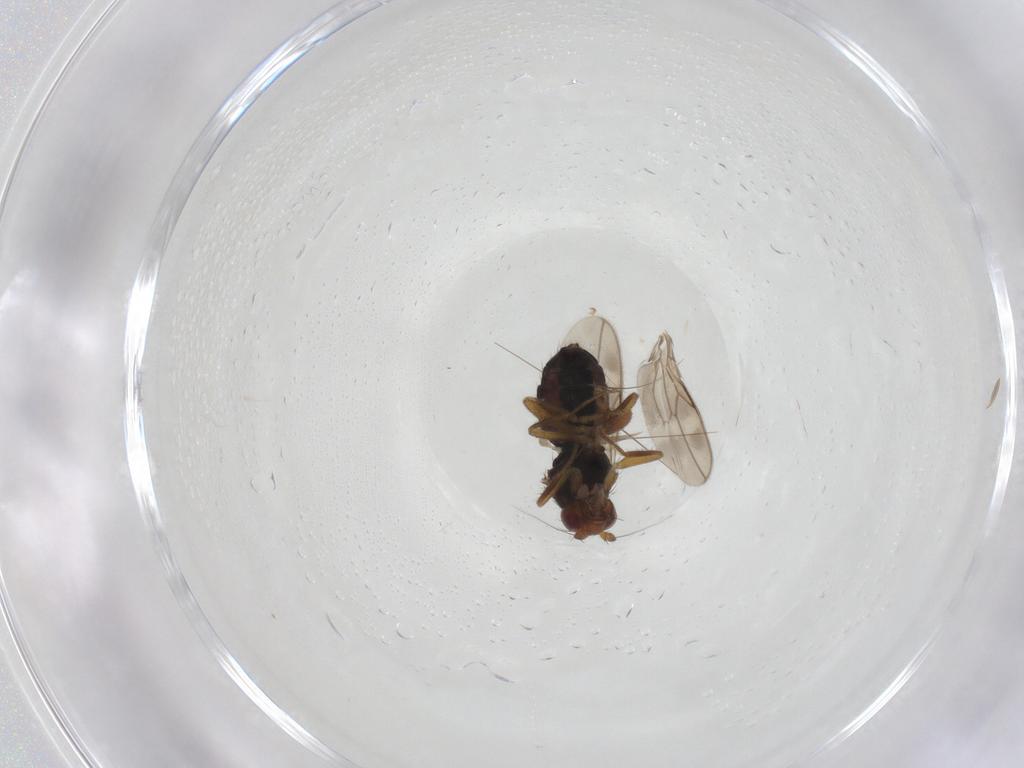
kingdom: Animalia
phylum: Arthropoda
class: Insecta
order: Diptera
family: Sphaeroceridae
